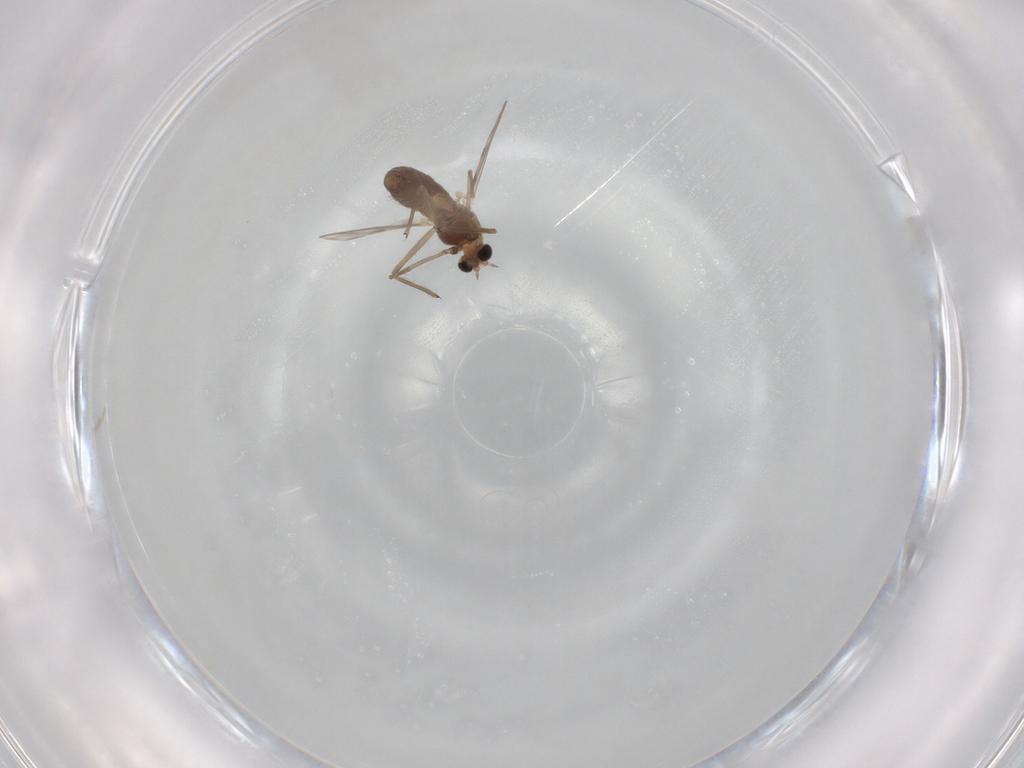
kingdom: Animalia
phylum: Arthropoda
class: Insecta
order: Diptera
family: Chironomidae
